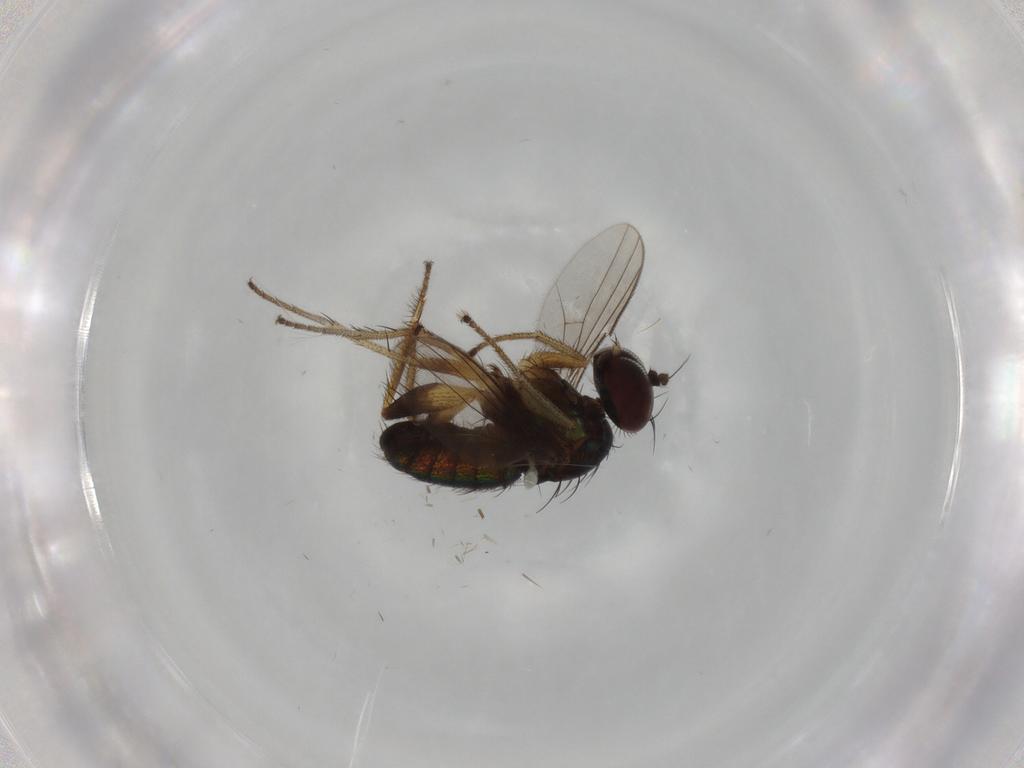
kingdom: Animalia
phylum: Arthropoda
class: Insecta
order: Diptera
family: Dolichopodidae
